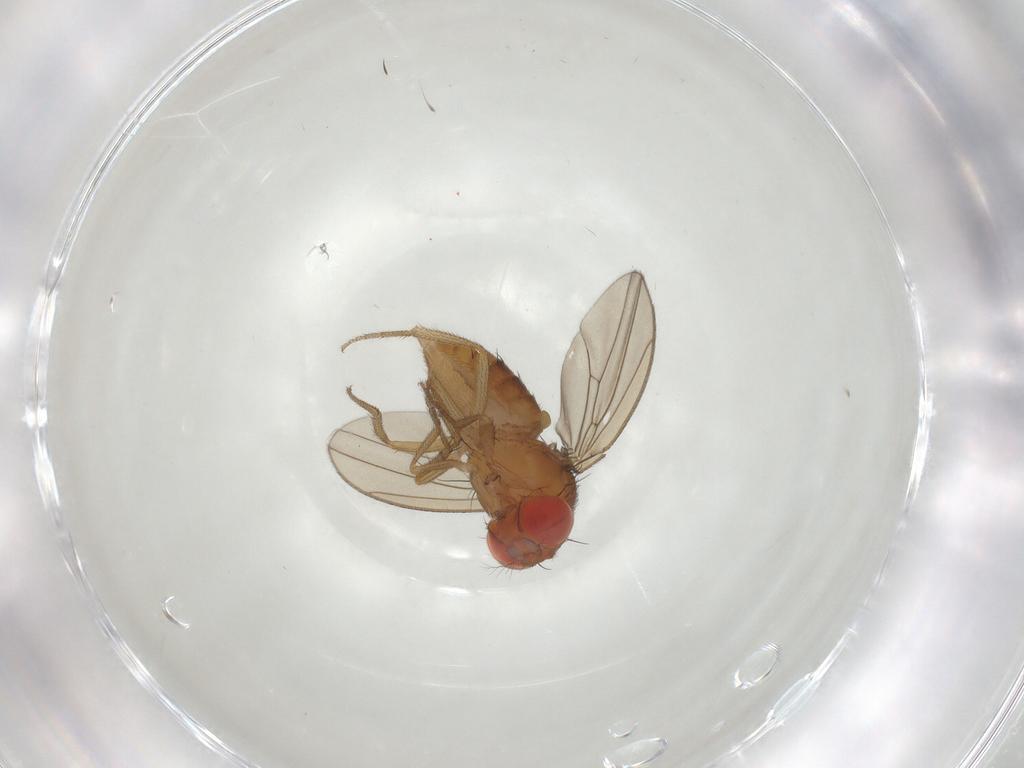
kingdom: Animalia
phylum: Arthropoda
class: Insecta
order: Diptera
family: Drosophilidae
